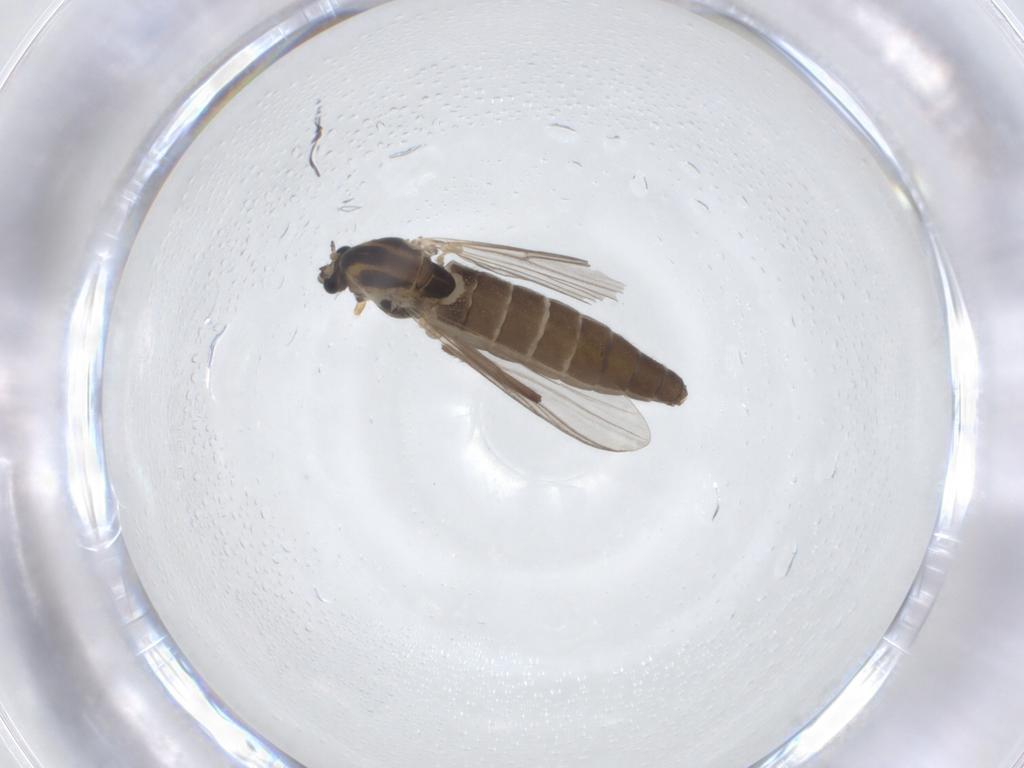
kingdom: Animalia
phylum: Arthropoda
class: Insecta
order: Diptera
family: Chironomidae
